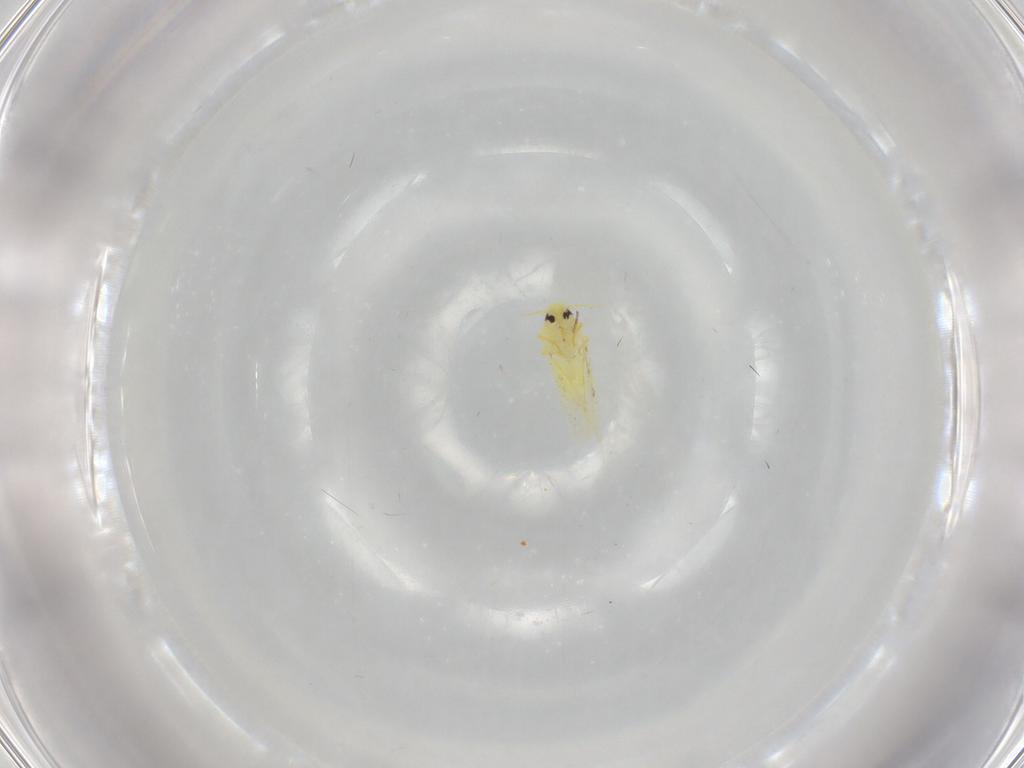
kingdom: Animalia
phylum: Arthropoda
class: Insecta
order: Hemiptera
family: Aleyrodidae
